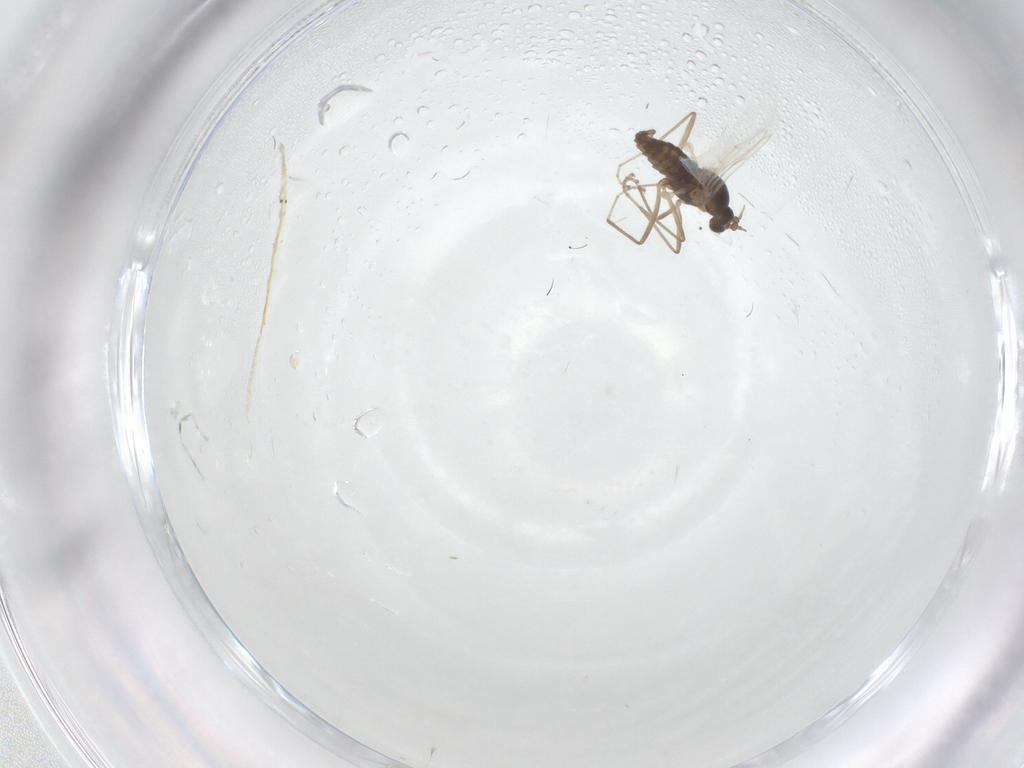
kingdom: Animalia
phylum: Arthropoda
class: Insecta
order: Diptera
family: Cecidomyiidae
